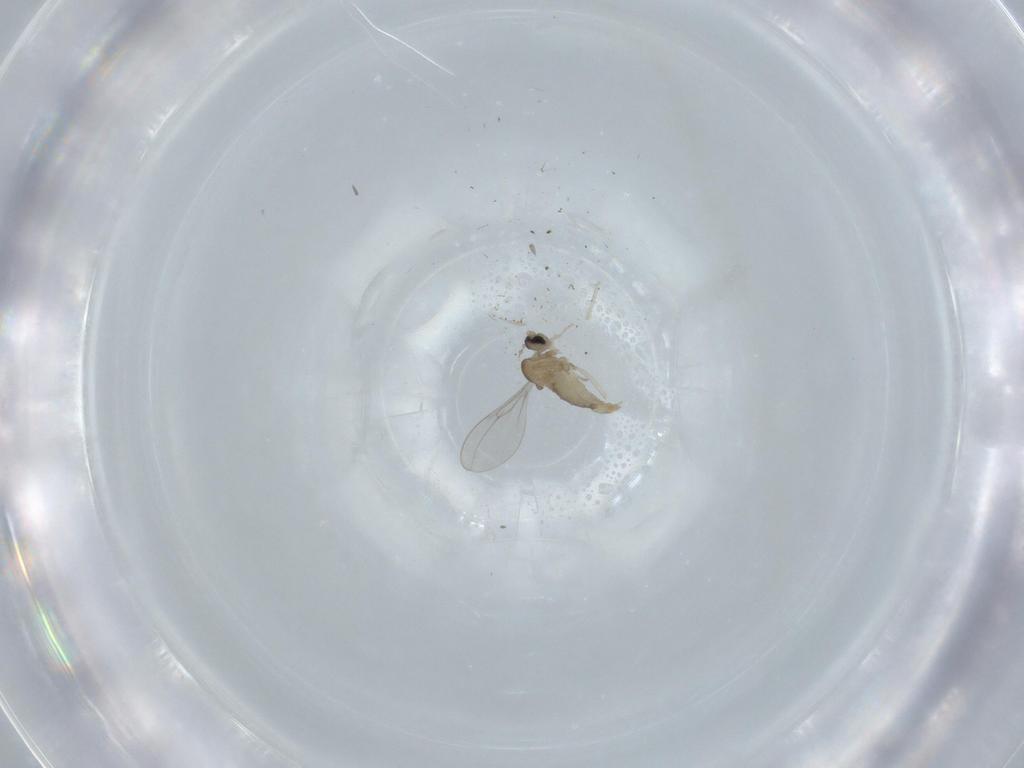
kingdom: Animalia
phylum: Arthropoda
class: Insecta
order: Diptera
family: Cecidomyiidae
